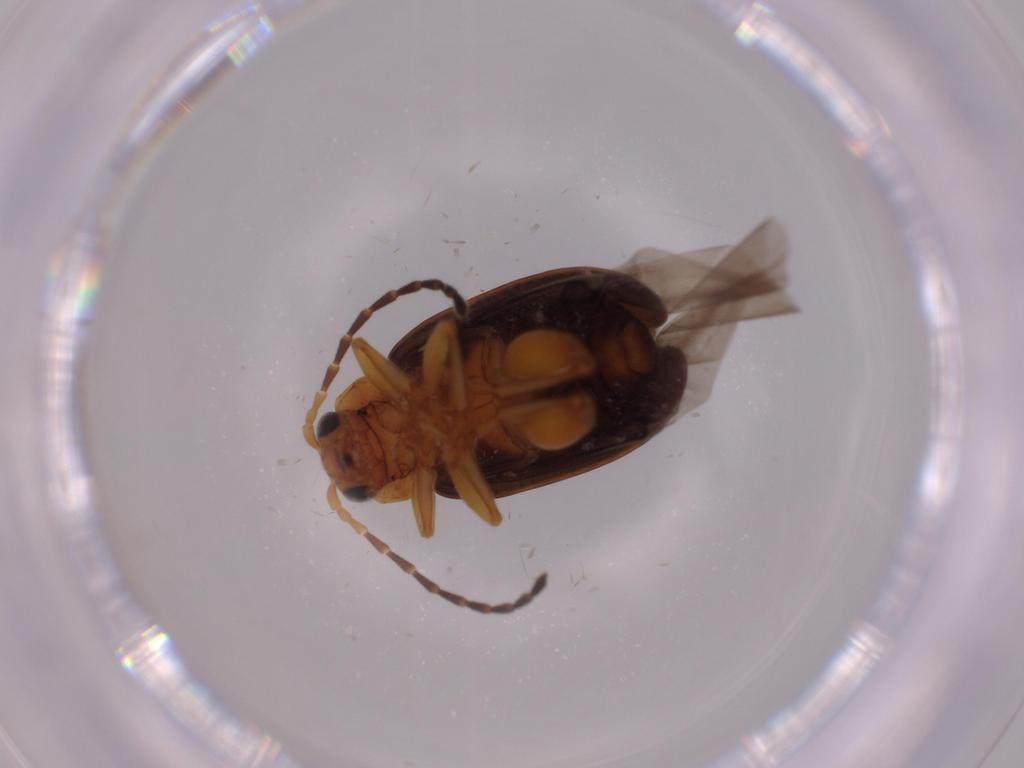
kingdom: Animalia
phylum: Arthropoda
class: Insecta
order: Coleoptera
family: Chrysomelidae
